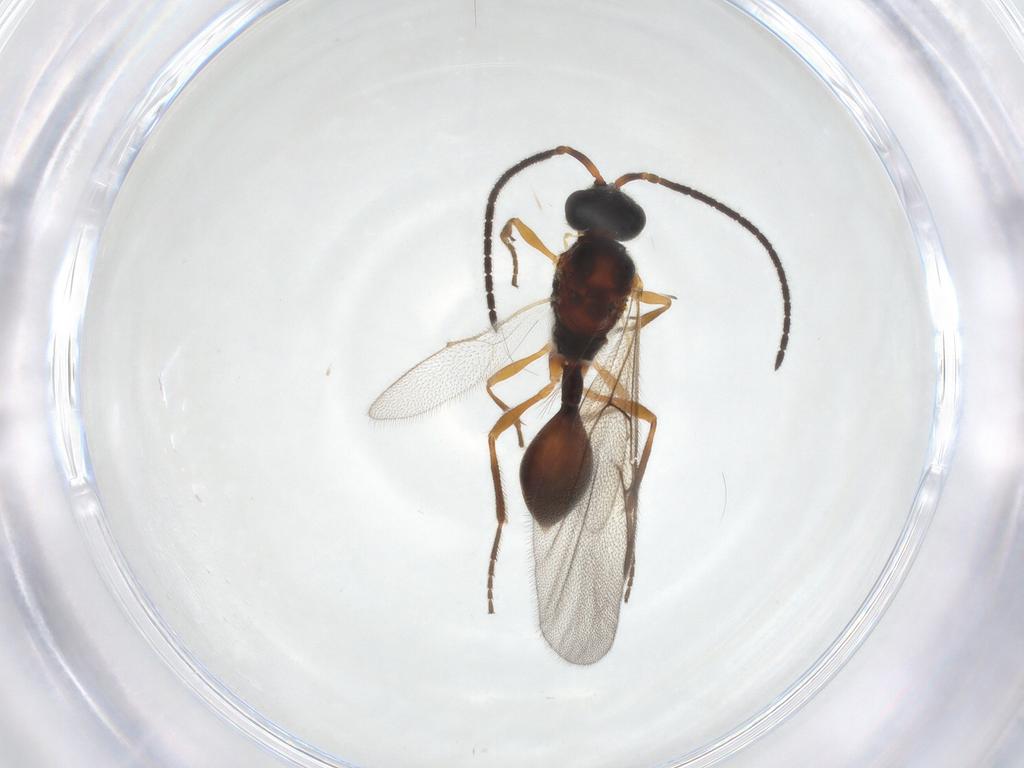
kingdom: Animalia
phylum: Arthropoda
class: Insecta
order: Hymenoptera
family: Diapriidae
